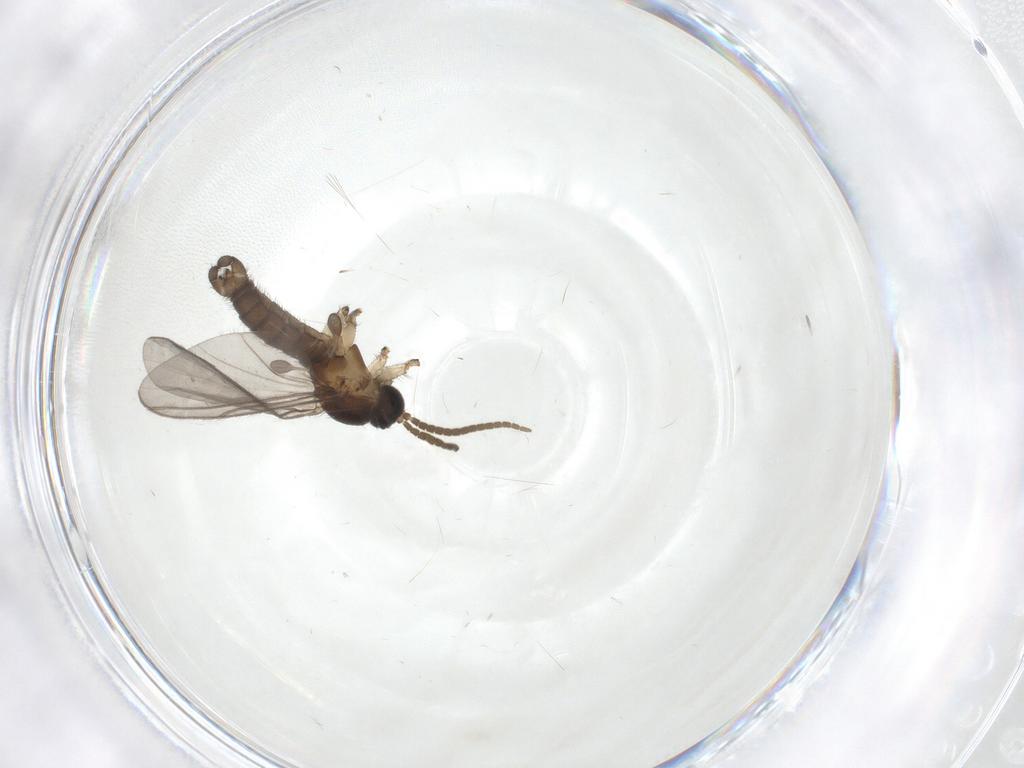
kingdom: Animalia
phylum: Arthropoda
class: Insecta
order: Diptera
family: Cecidomyiidae
